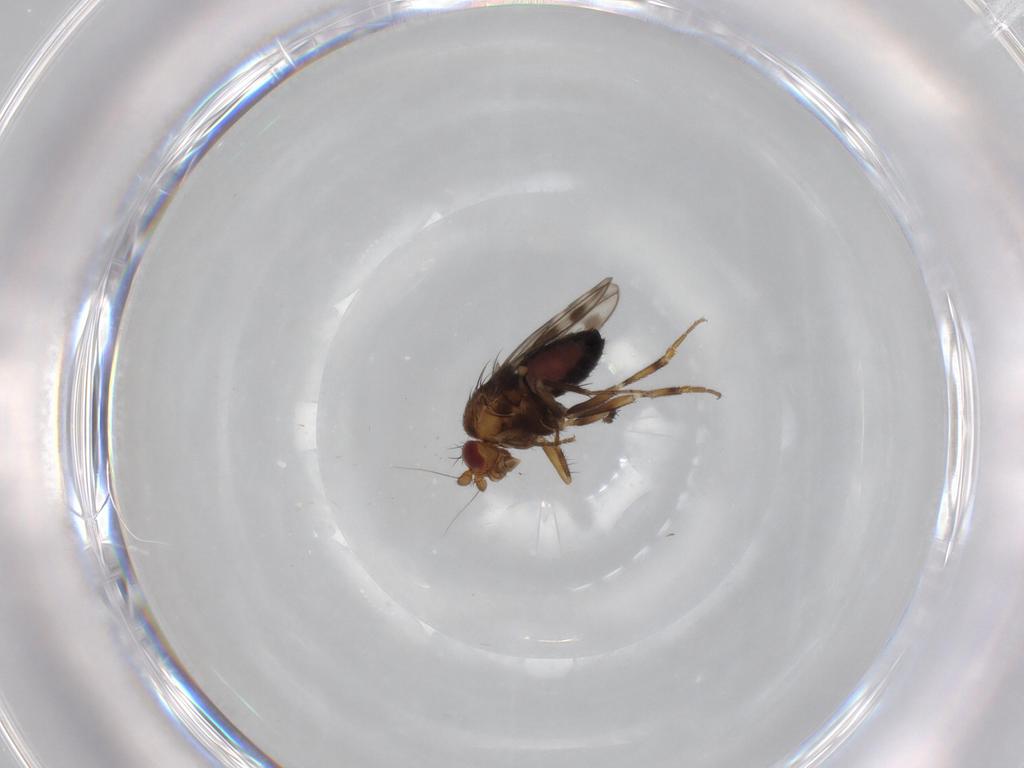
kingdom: Animalia
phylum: Arthropoda
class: Insecta
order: Diptera
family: Sphaeroceridae
